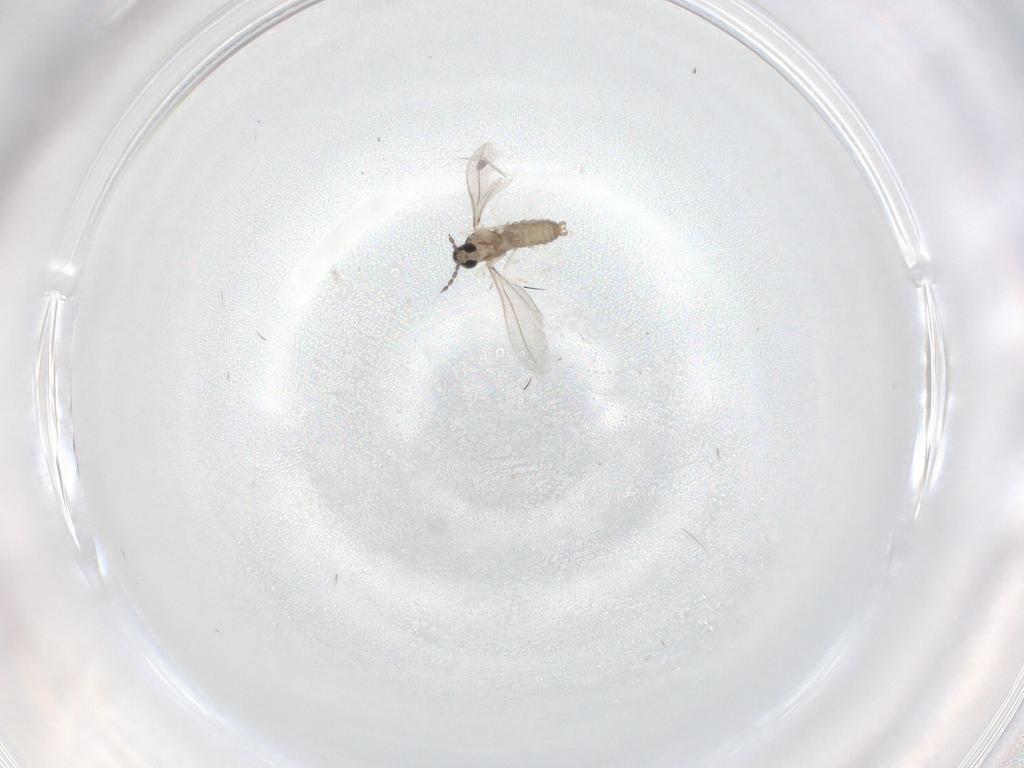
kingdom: Animalia
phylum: Arthropoda
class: Insecta
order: Diptera
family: Cecidomyiidae
